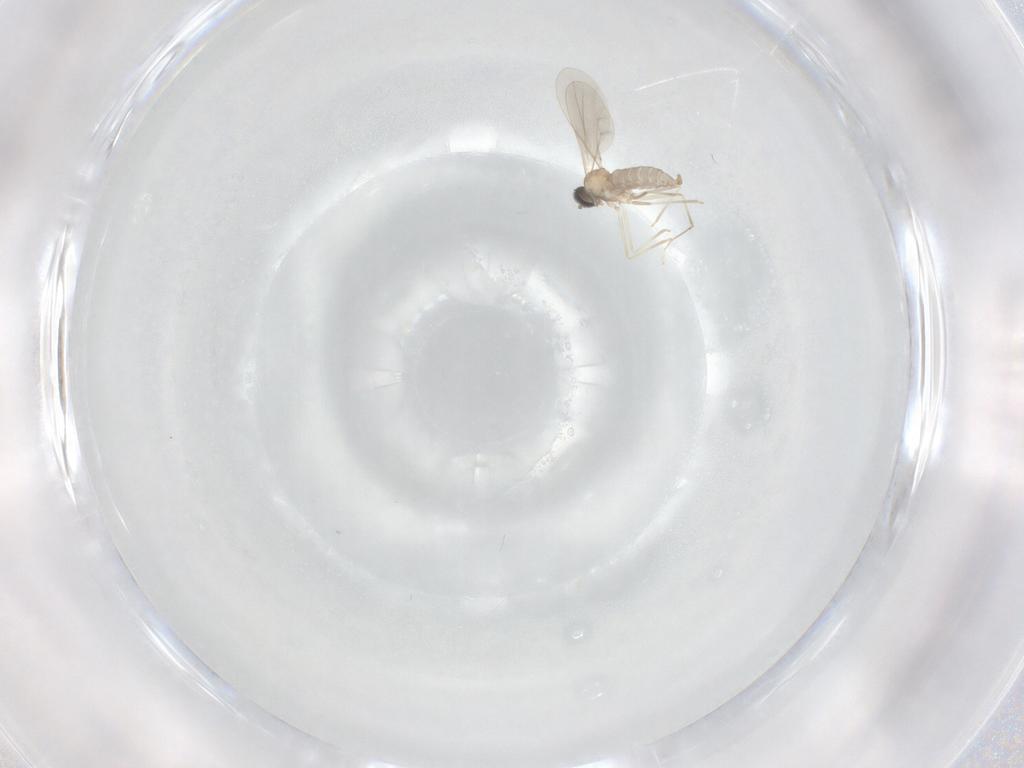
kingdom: Animalia
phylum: Arthropoda
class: Insecta
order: Diptera
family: Cecidomyiidae
